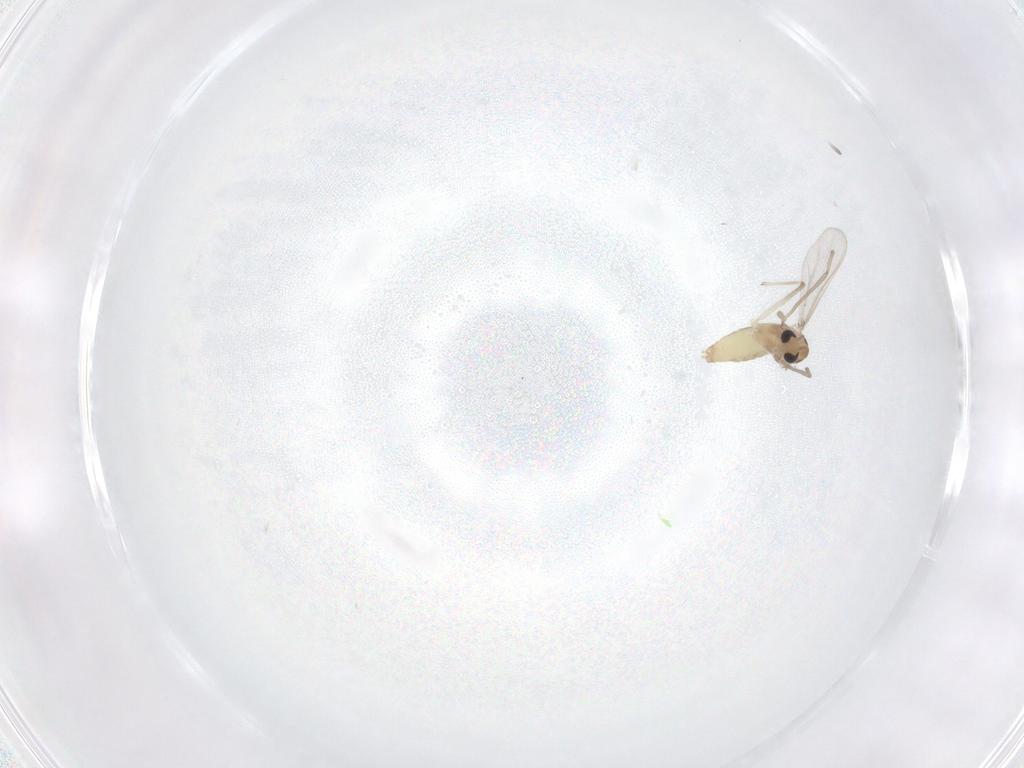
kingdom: Animalia
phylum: Arthropoda
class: Insecta
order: Diptera
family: Chironomidae
